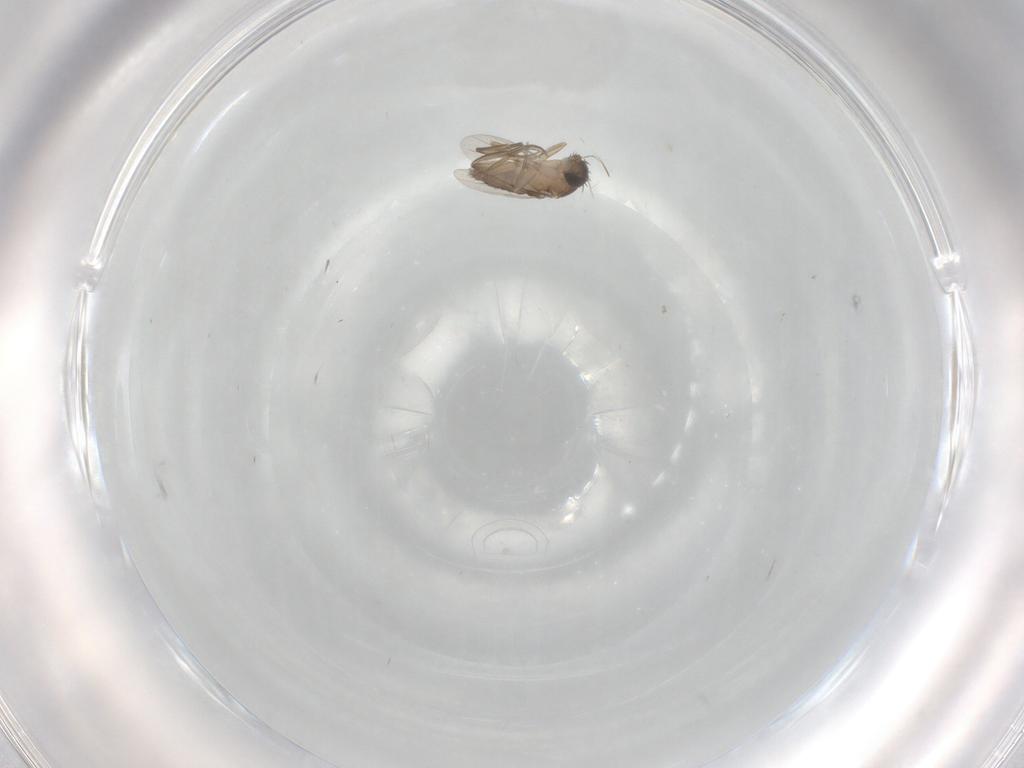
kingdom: Animalia
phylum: Arthropoda
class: Insecta
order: Diptera
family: Phoridae
